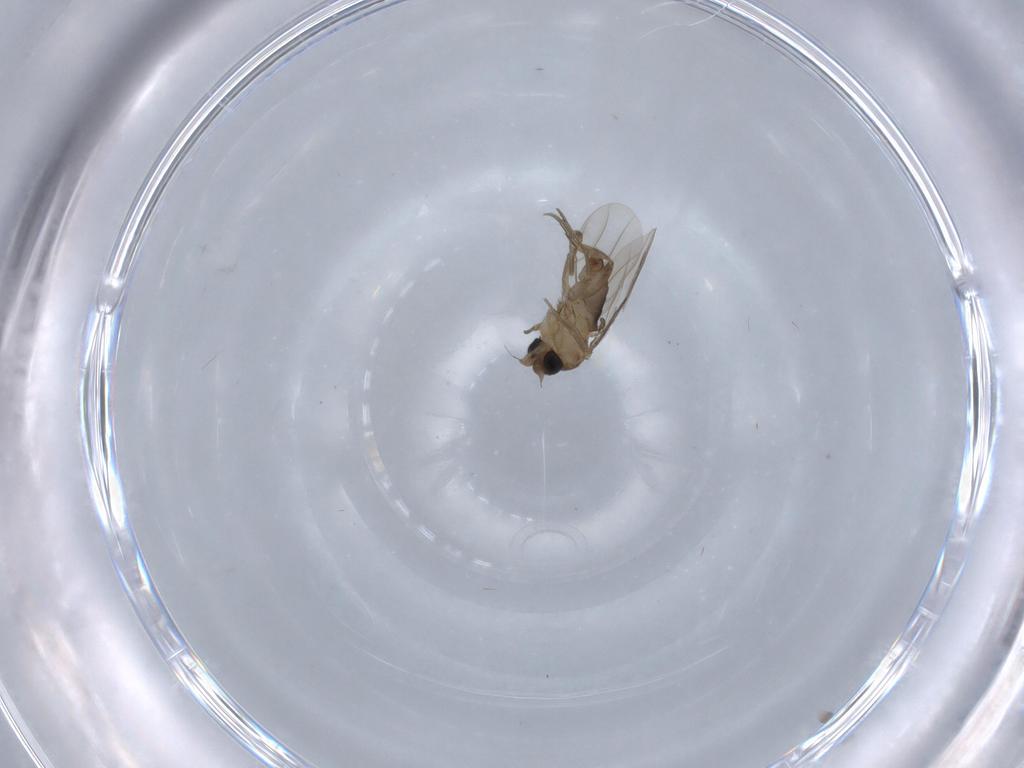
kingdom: Animalia
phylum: Arthropoda
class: Insecta
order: Diptera
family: Phoridae
